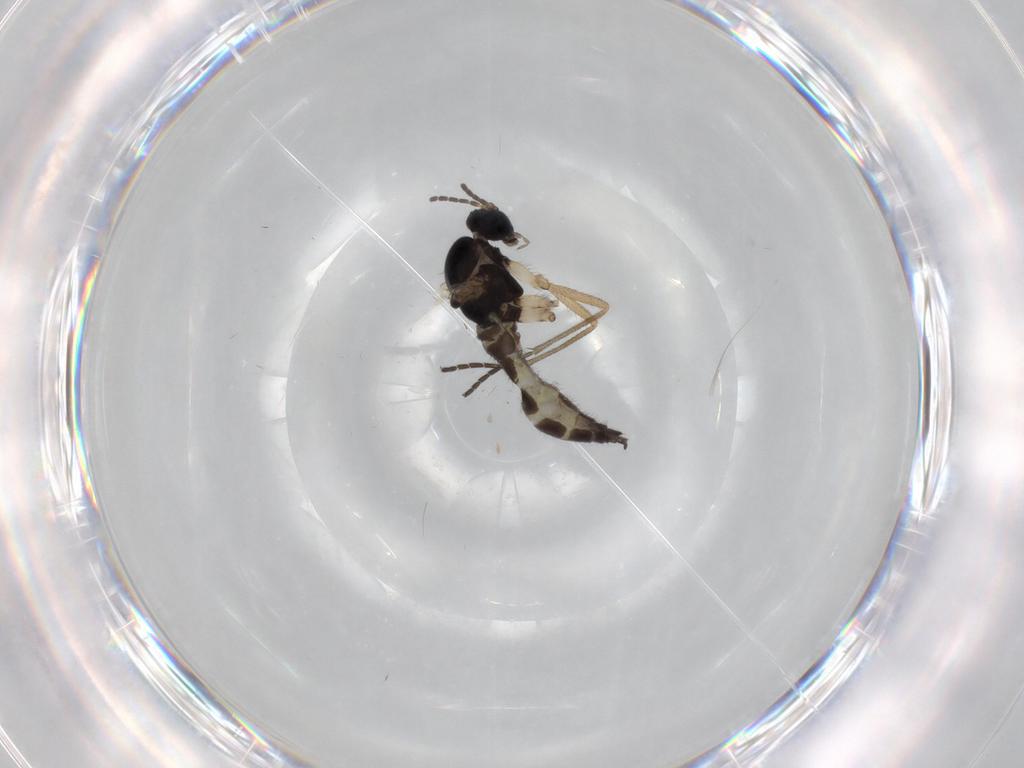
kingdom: Animalia
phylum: Arthropoda
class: Insecta
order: Diptera
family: Sciaridae
